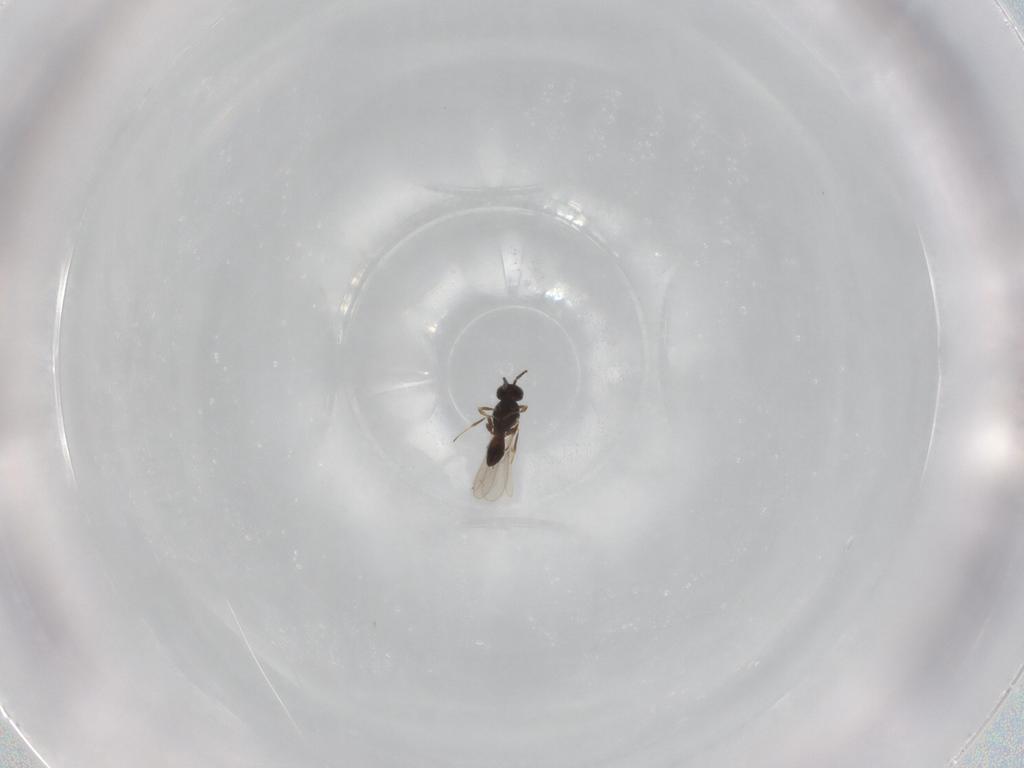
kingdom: Animalia
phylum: Arthropoda
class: Insecta
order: Hymenoptera
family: Scelionidae
